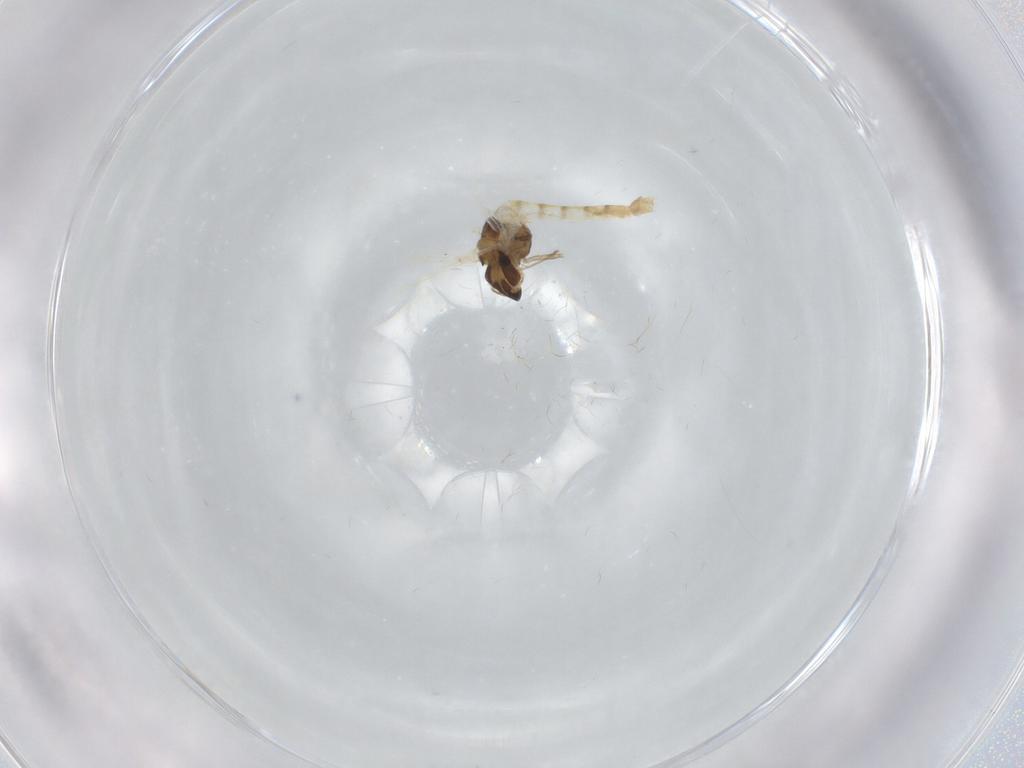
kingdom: Animalia
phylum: Arthropoda
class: Insecta
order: Diptera
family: Chironomidae
